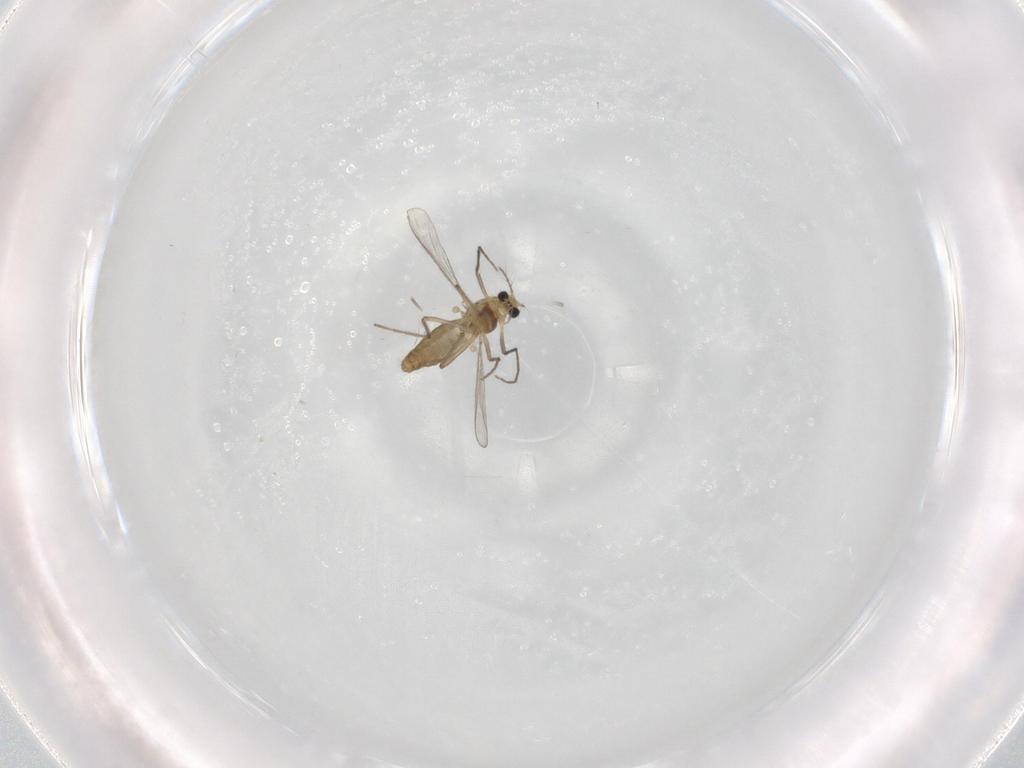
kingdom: Animalia
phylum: Arthropoda
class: Insecta
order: Diptera
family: Chironomidae
